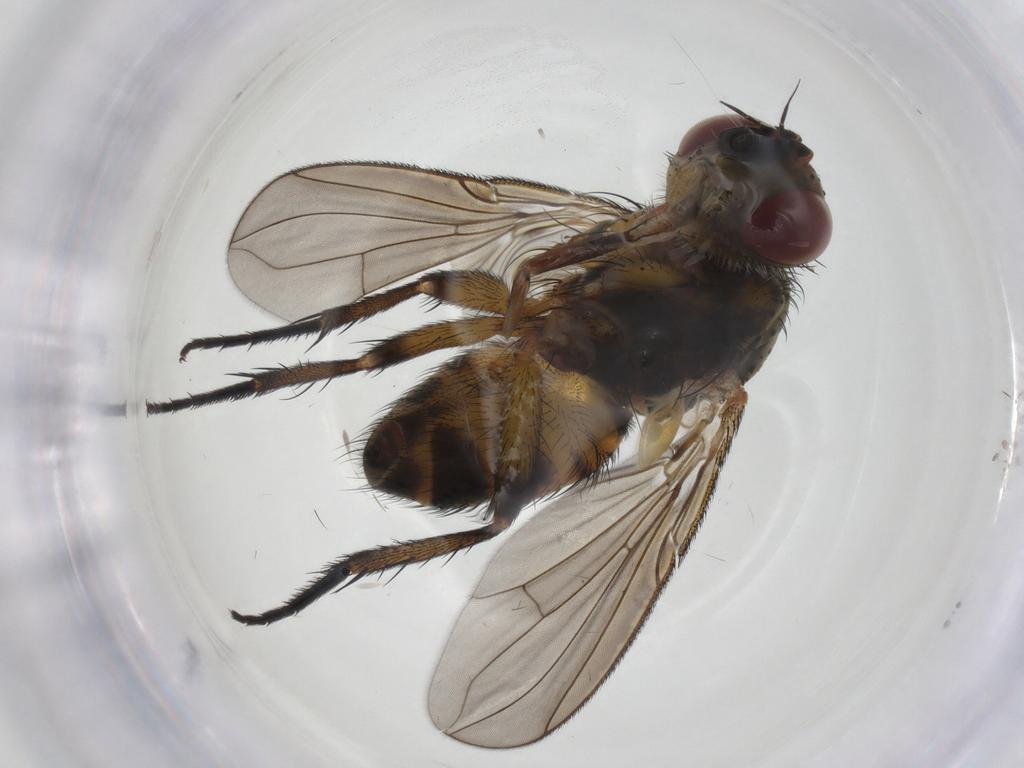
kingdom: Animalia
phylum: Arthropoda
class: Insecta
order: Diptera
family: Tachinidae
